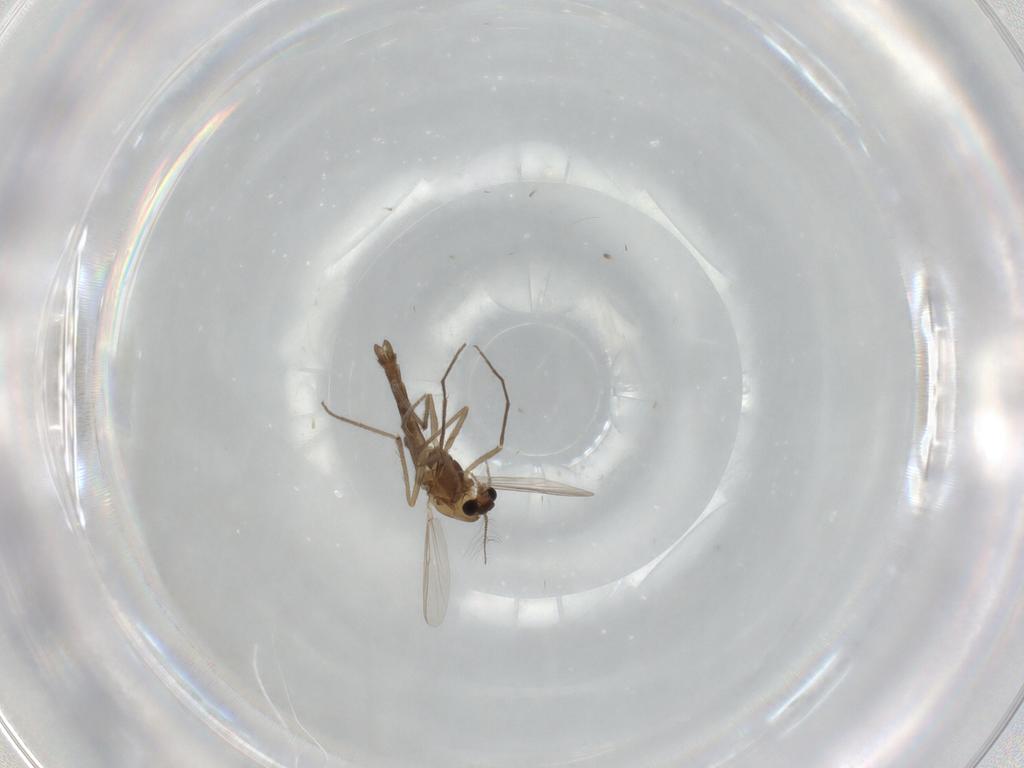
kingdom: Animalia
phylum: Arthropoda
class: Insecta
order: Diptera
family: Chironomidae
